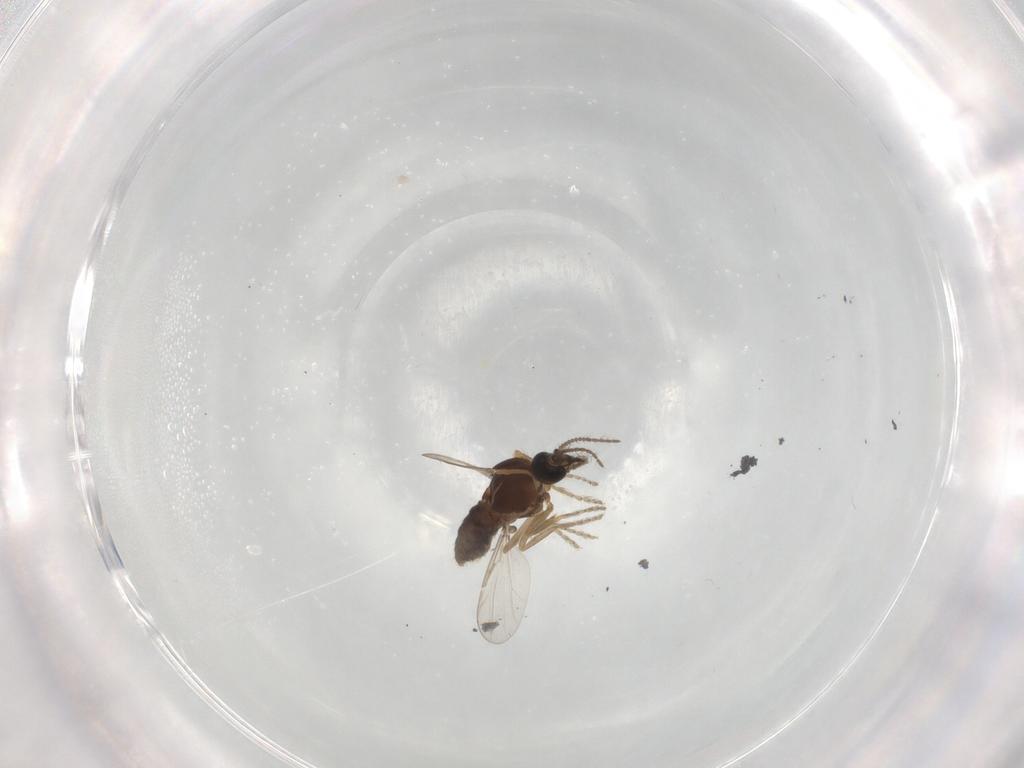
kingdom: Animalia
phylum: Arthropoda
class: Insecta
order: Diptera
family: Ceratopogonidae
